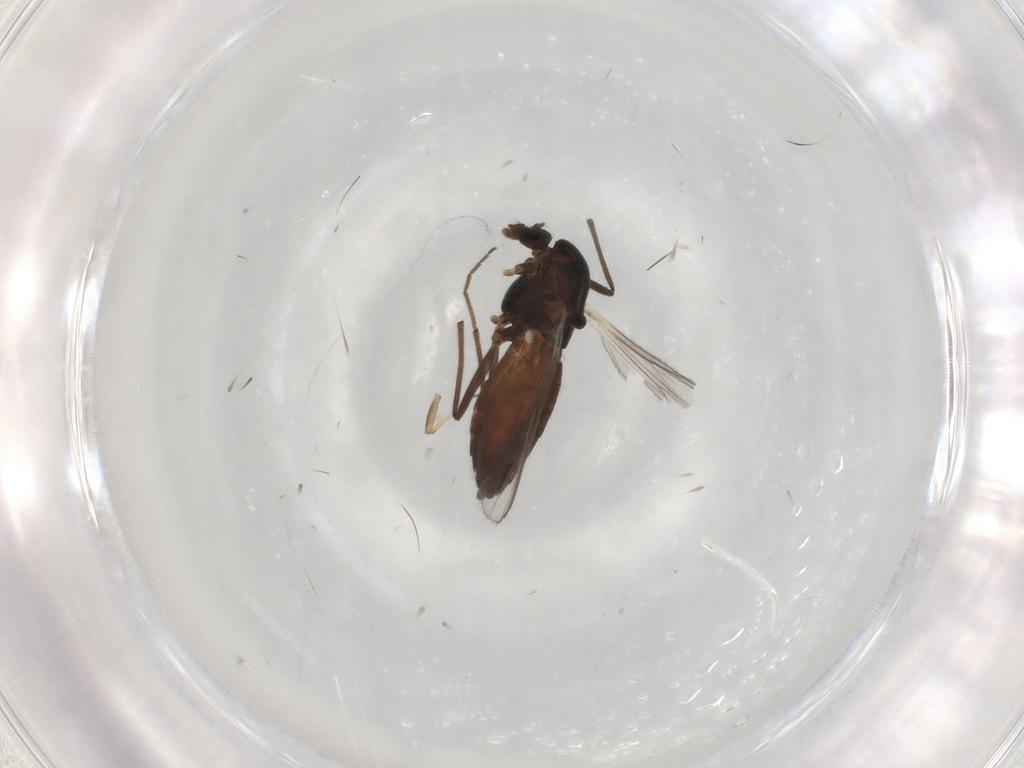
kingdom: Animalia
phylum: Arthropoda
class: Insecta
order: Diptera
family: Chironomidae
